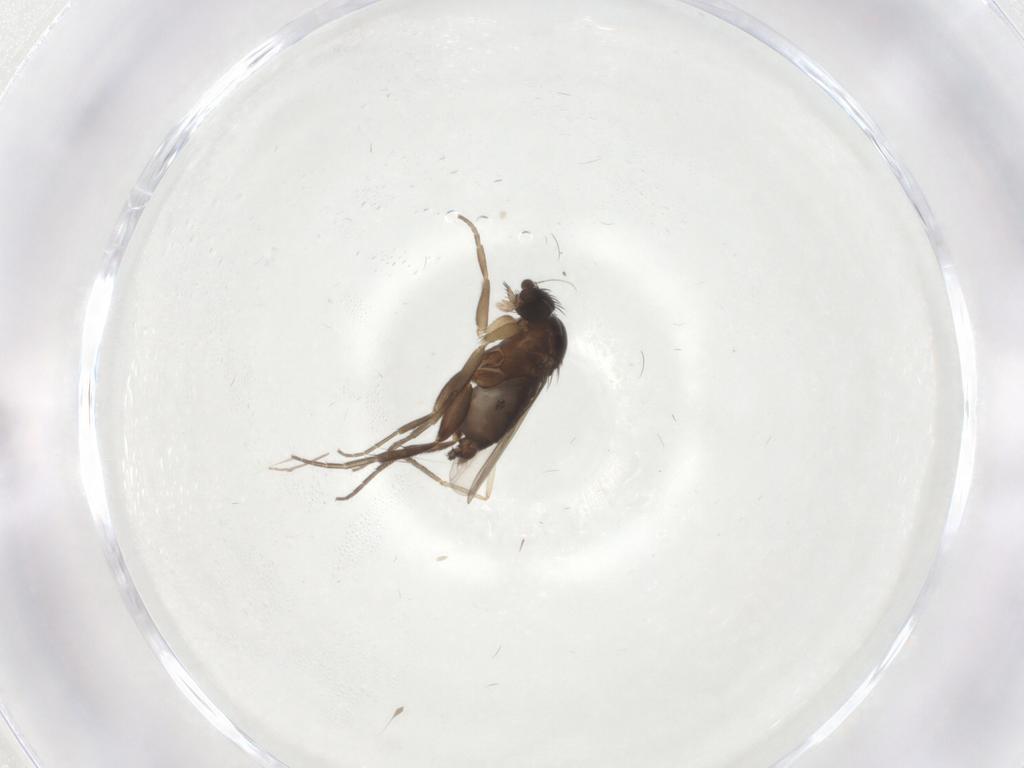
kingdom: Animalia
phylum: Arthropoda
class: Insecta
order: Diptera
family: Phoridae
